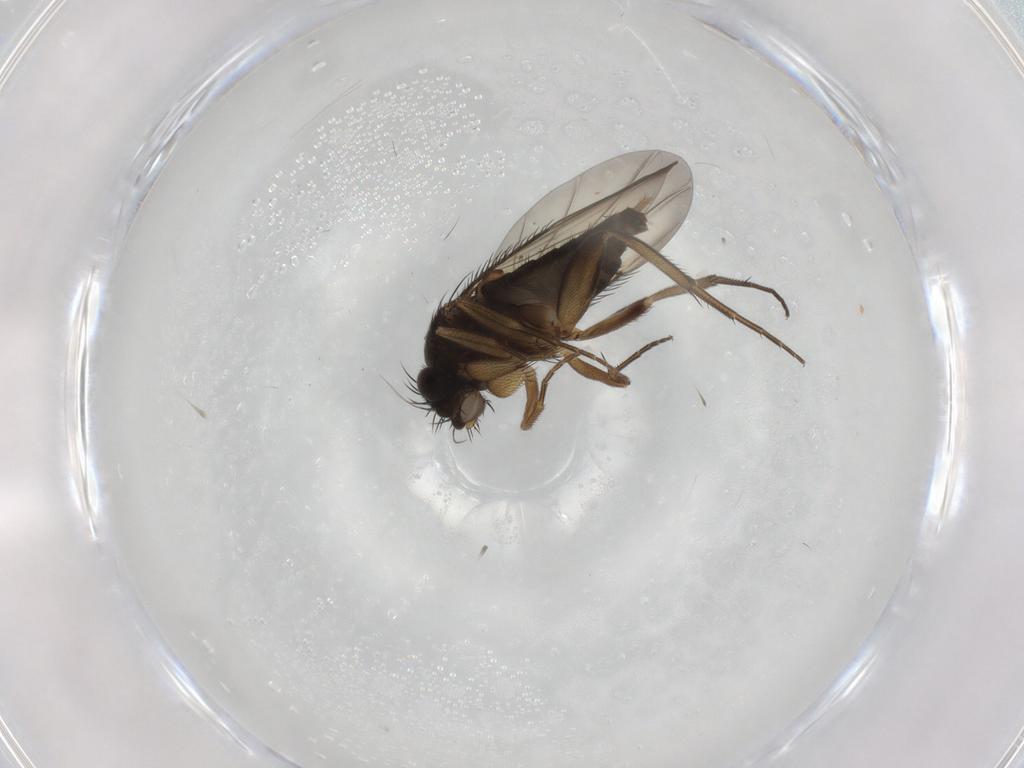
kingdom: Animalia
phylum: Arthropoda
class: Insecta
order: Diptera
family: Phoridae
